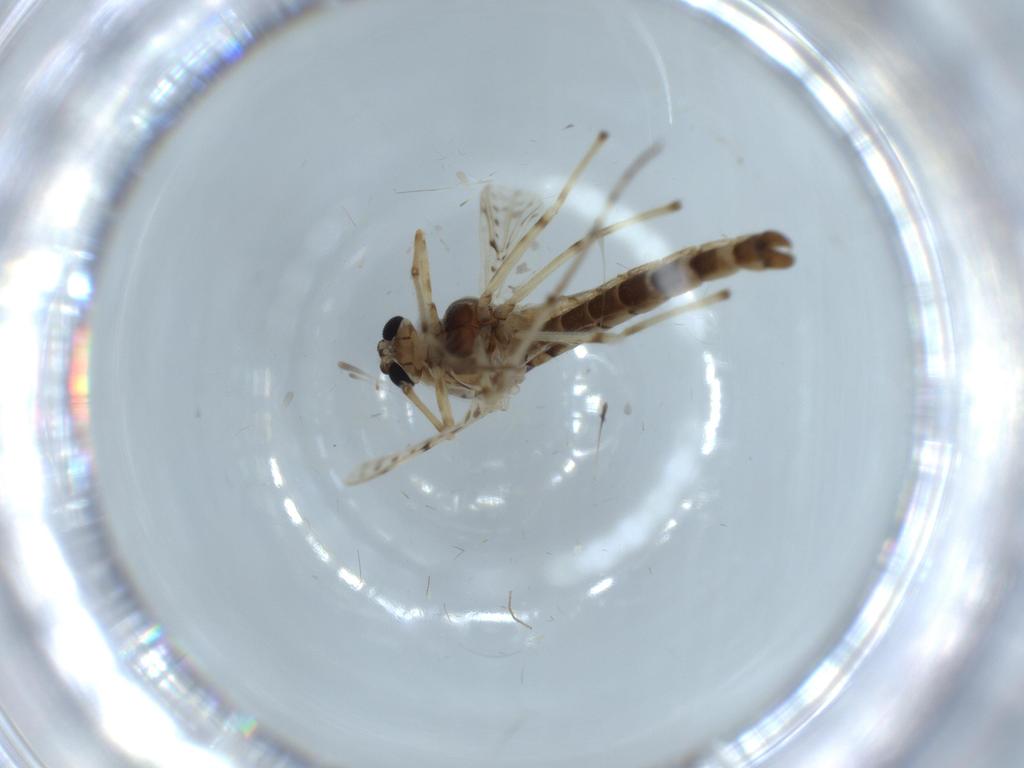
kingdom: Animalia
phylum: Arthropoda
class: Insecta
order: Diptera
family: Chironomidae
